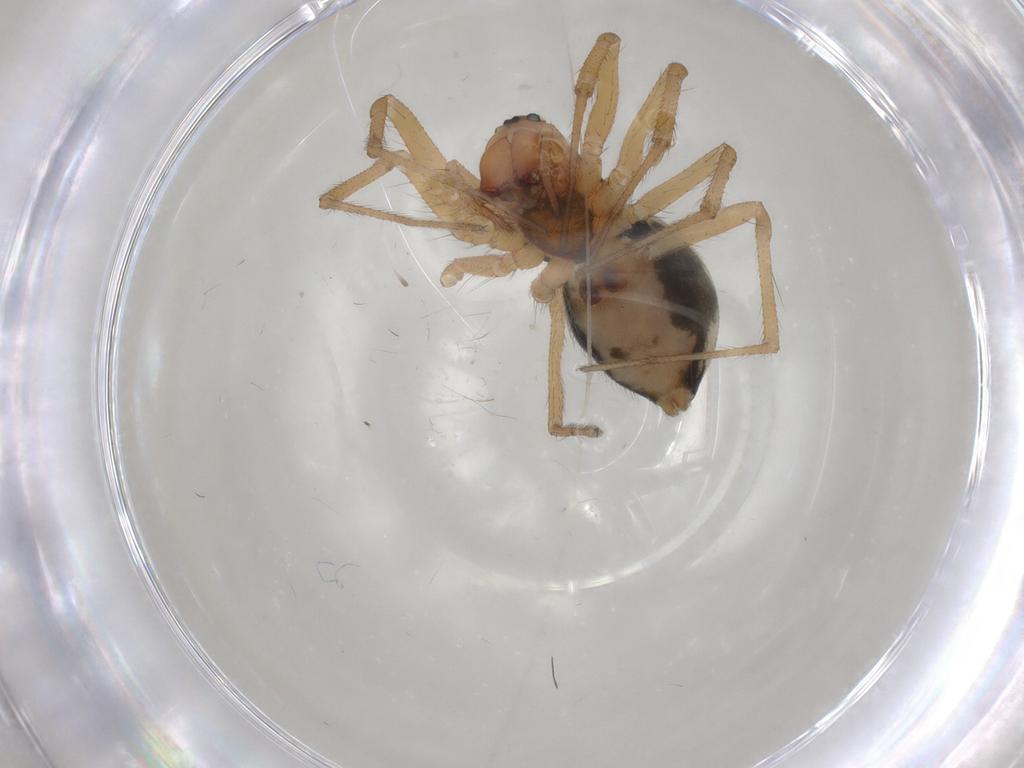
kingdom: Animalia
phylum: Arthropoda
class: Arachnida
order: Araneae
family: Linyphiidae
